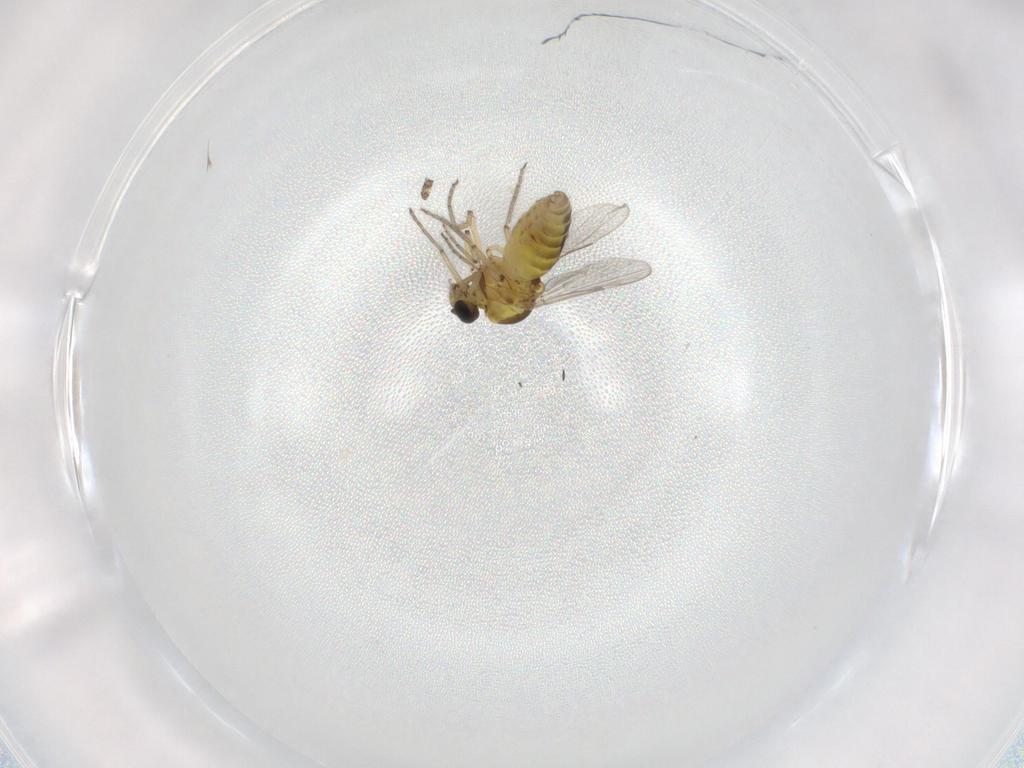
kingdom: Animalia
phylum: Arthropoda
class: Insecta
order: Diptera
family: Ceratopogonidae
